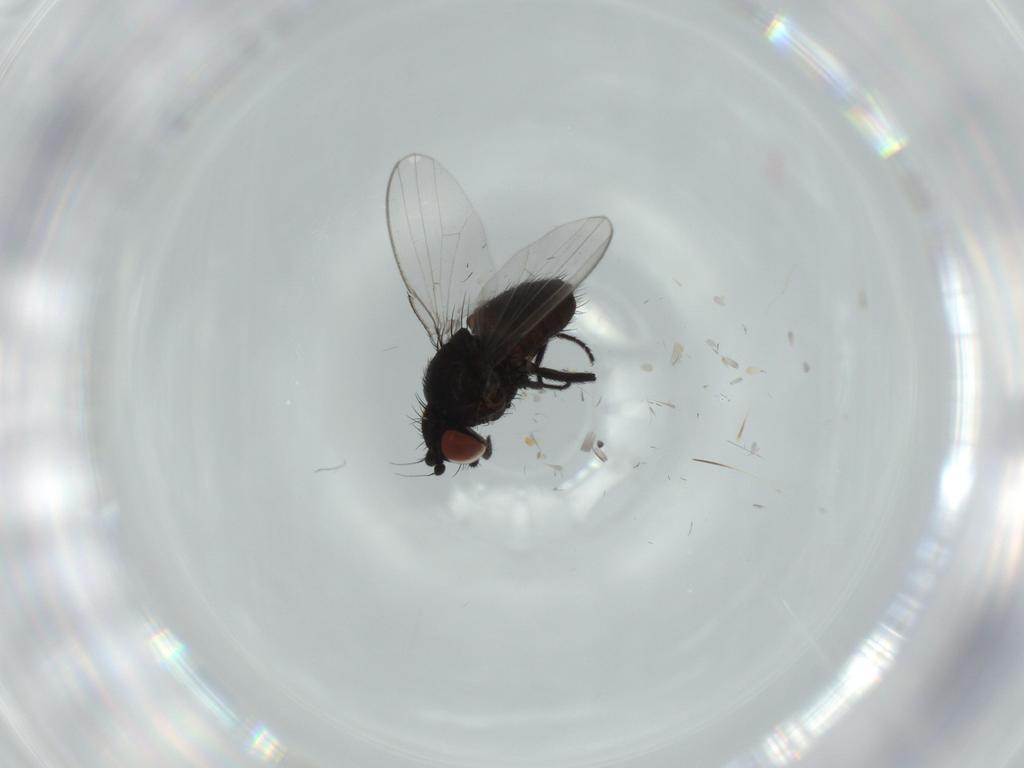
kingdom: Animalia
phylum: Arthropoda
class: Insecta
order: Diptera
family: Milichiidae
